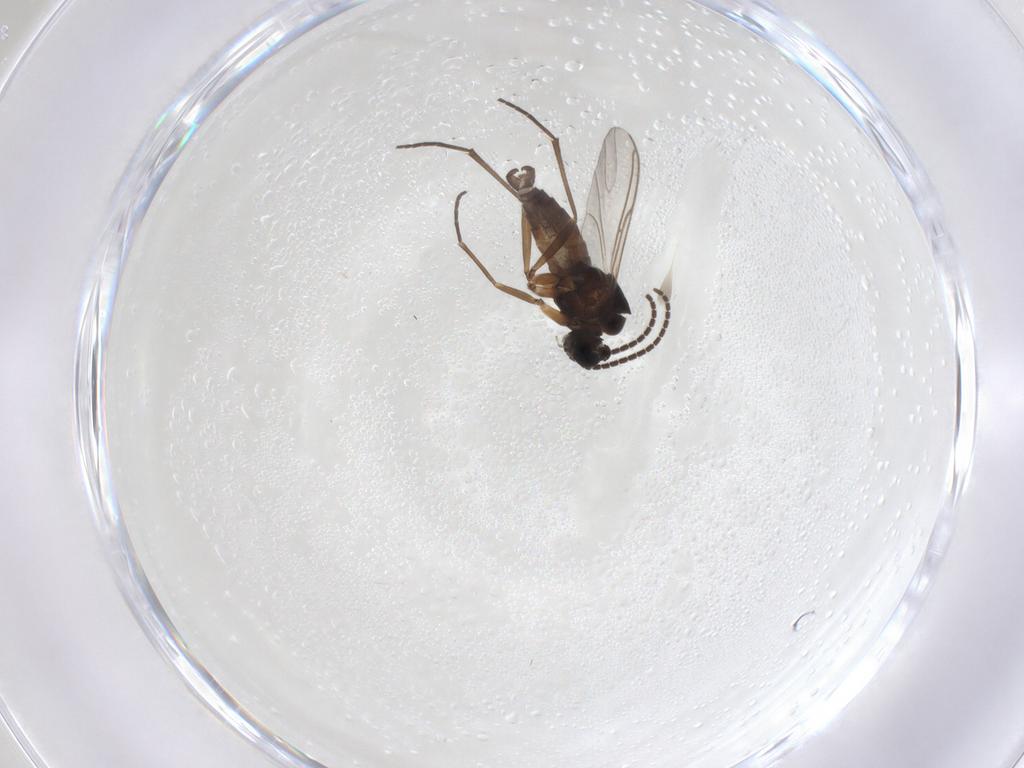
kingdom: Animalia
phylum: Arthropoda
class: Insecta
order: Diptera
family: Sciaridae
